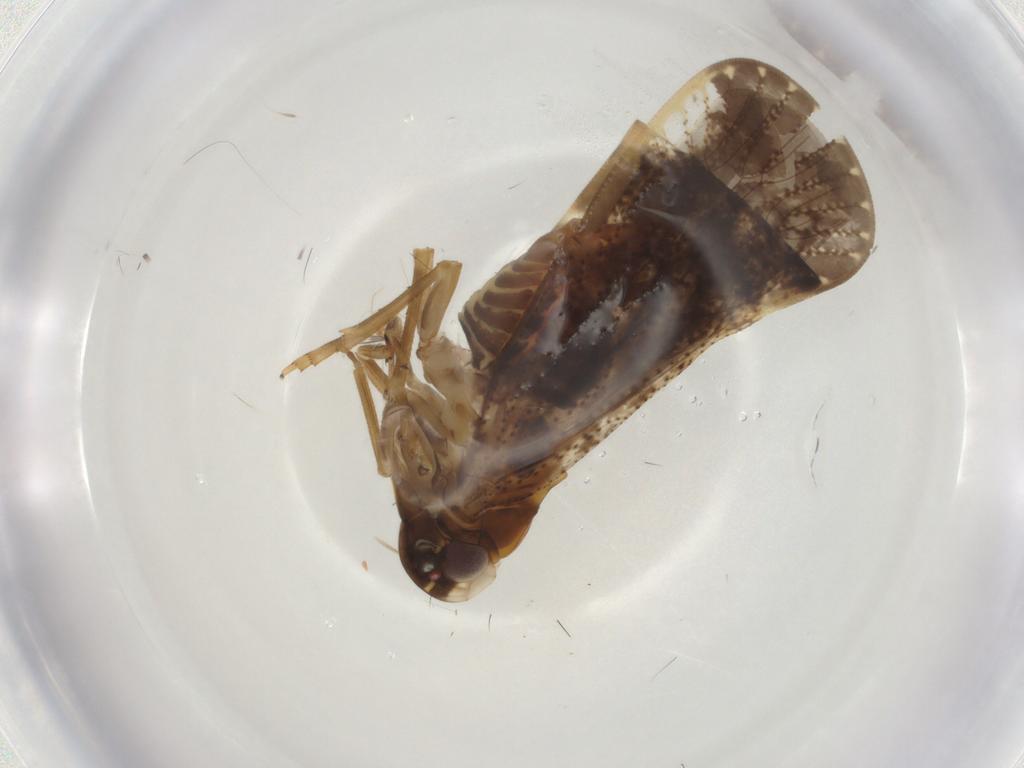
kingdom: Animalia
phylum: Arthropoda
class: Insecta
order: Hemiptera
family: Cixiidae
